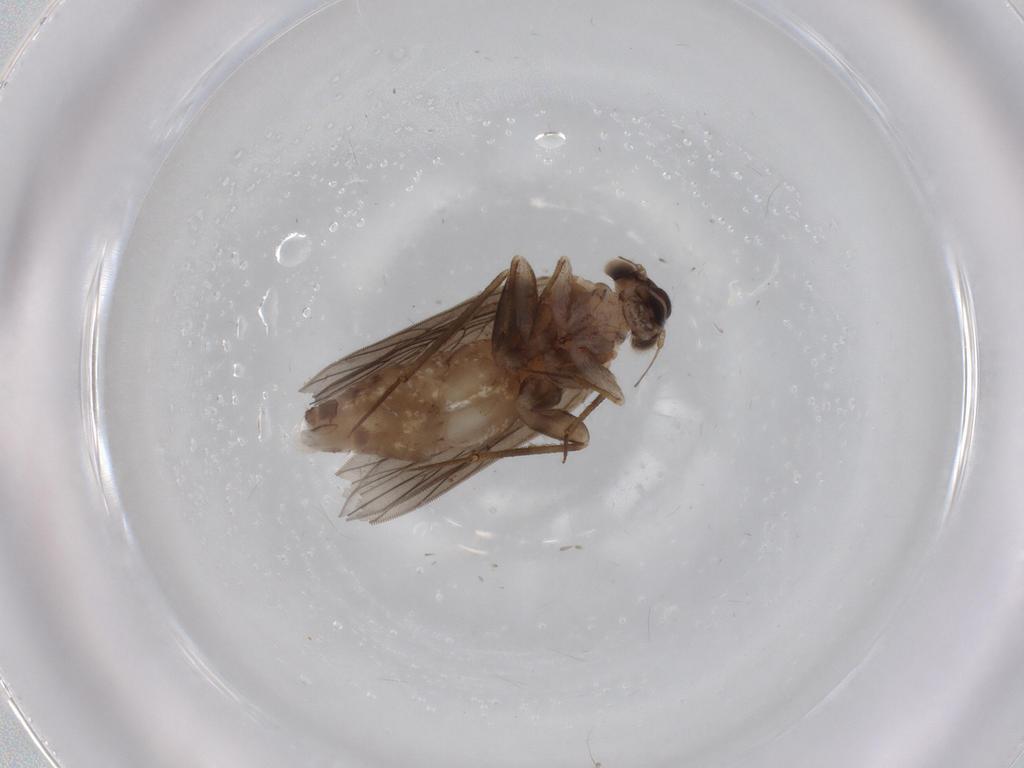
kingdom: Animalia
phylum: Arthropoda
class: Insecta
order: Psocodea
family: Lepidopsocidae
